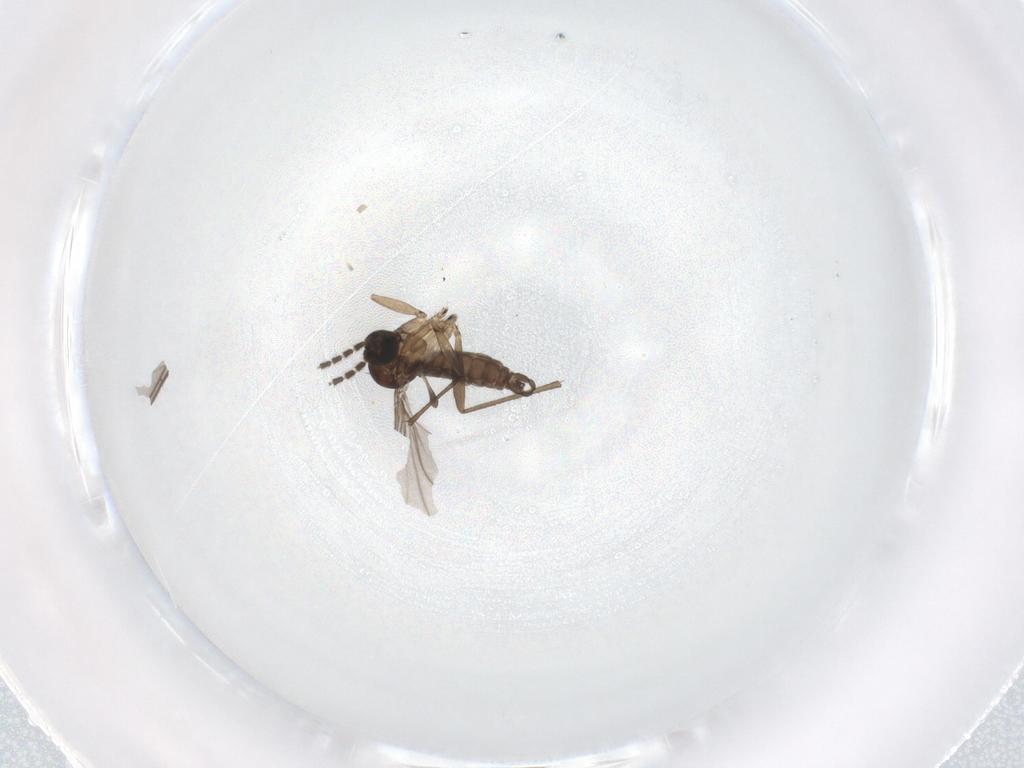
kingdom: Animalia
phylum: Arthropoda
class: Insecta
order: Diptera
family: Sciaridae
